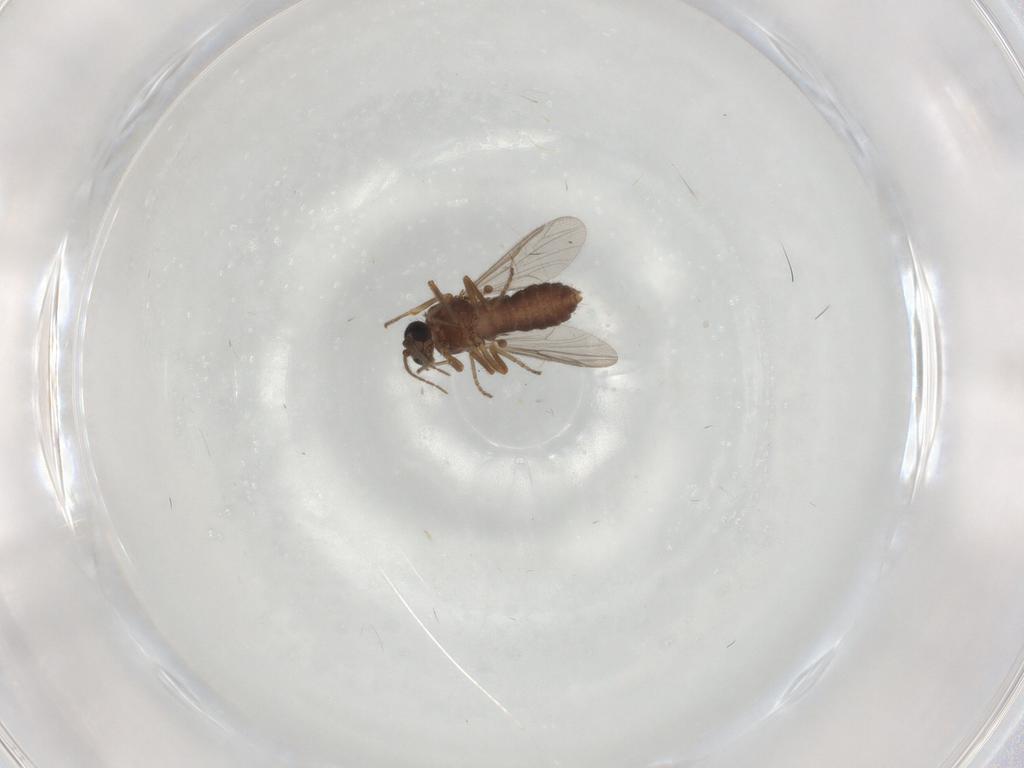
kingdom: Animalia
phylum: Arthropoda
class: Insecta
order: Diptera
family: Ceratopogonidae
